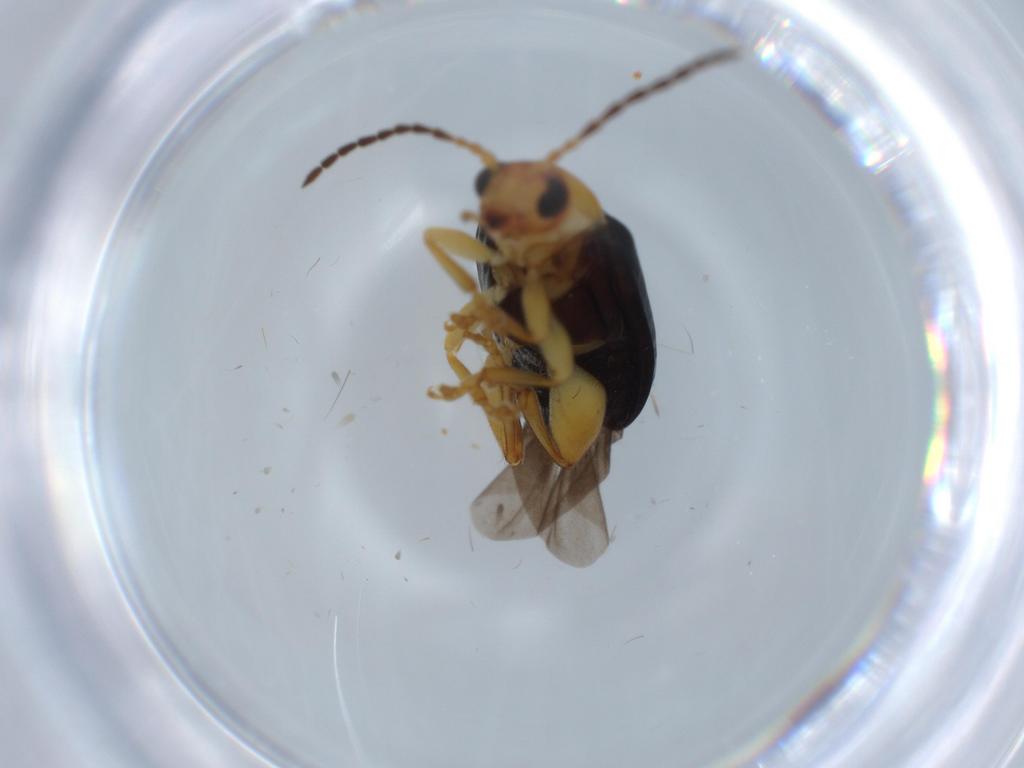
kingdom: Animalia
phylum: Arthropoda
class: Insecta
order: Coleoptera
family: Chrysomelidae
